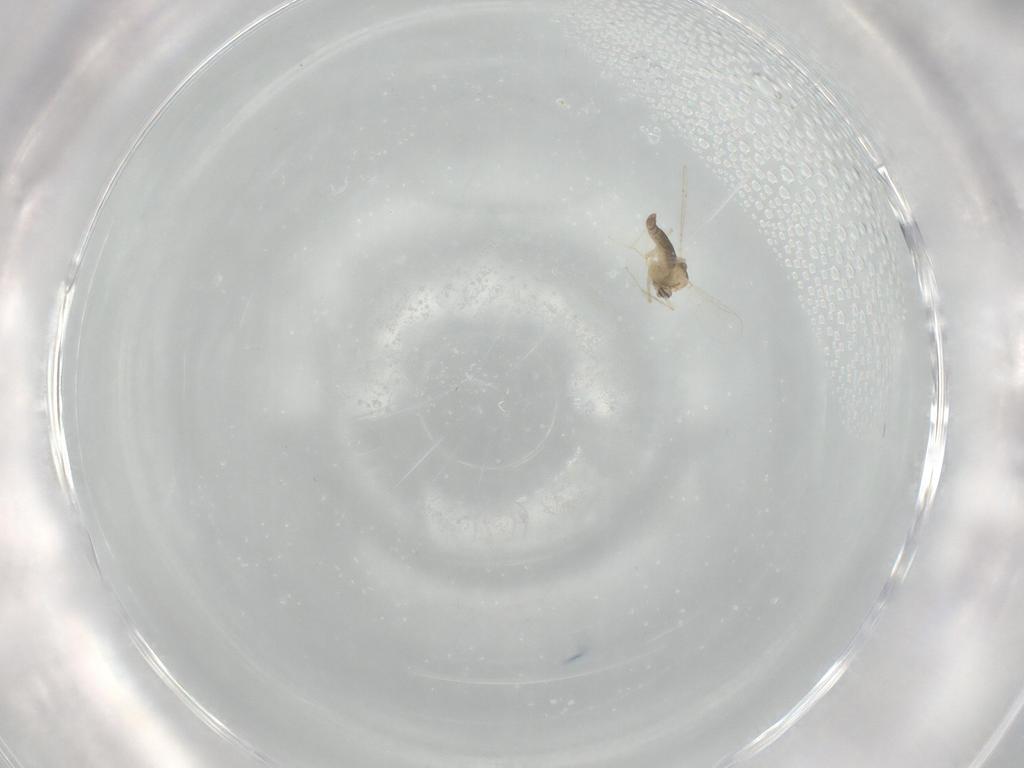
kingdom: Animalia
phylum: Arthropoda
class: Insecta
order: Diptera
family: Chironomidae
